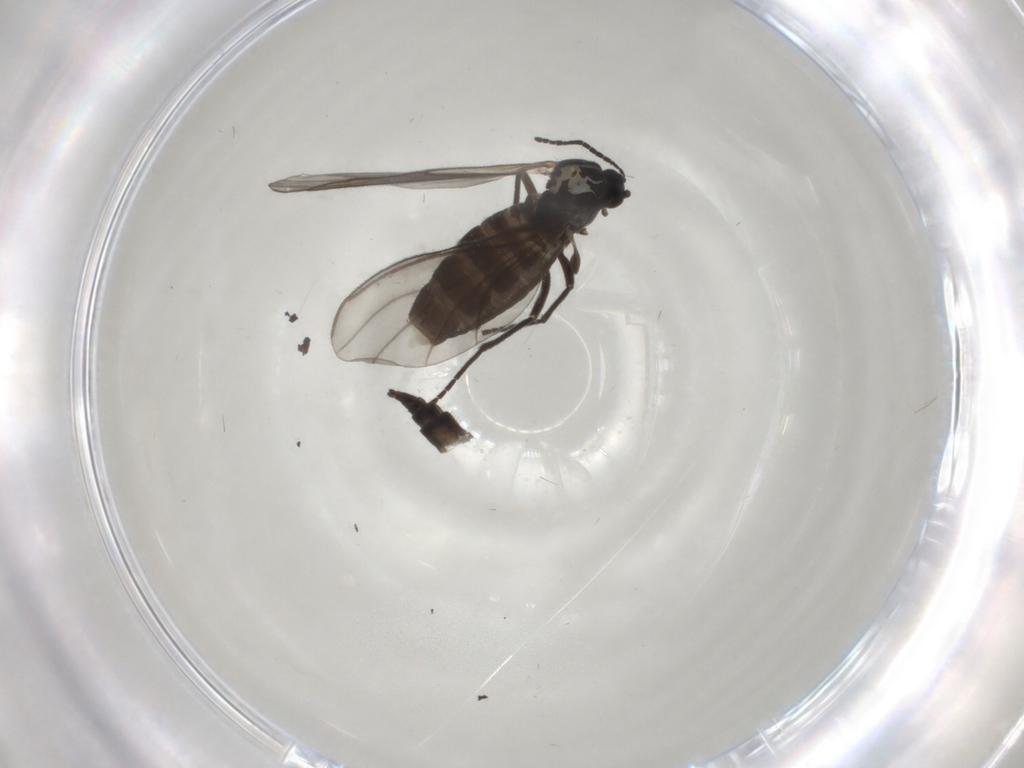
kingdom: Animalia
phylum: Arthropoda
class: Insecta
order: Diptera
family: Sciaridae
